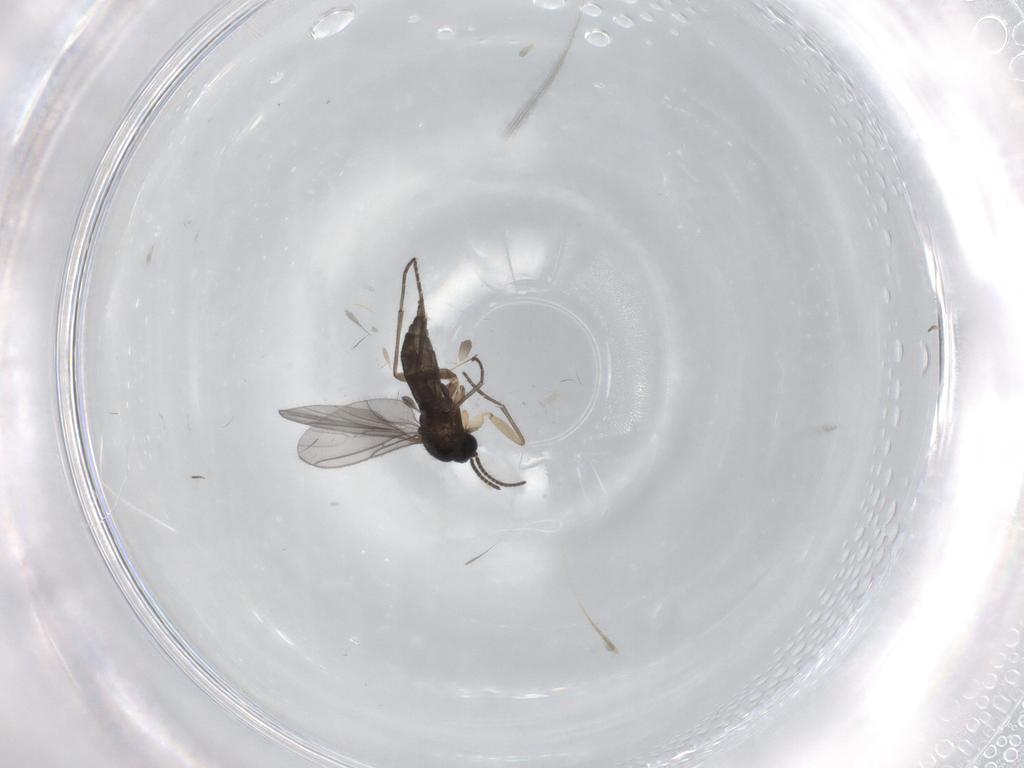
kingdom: Animalia
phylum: Arthropoda
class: Insecta
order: Diptera
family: Sciaridae
